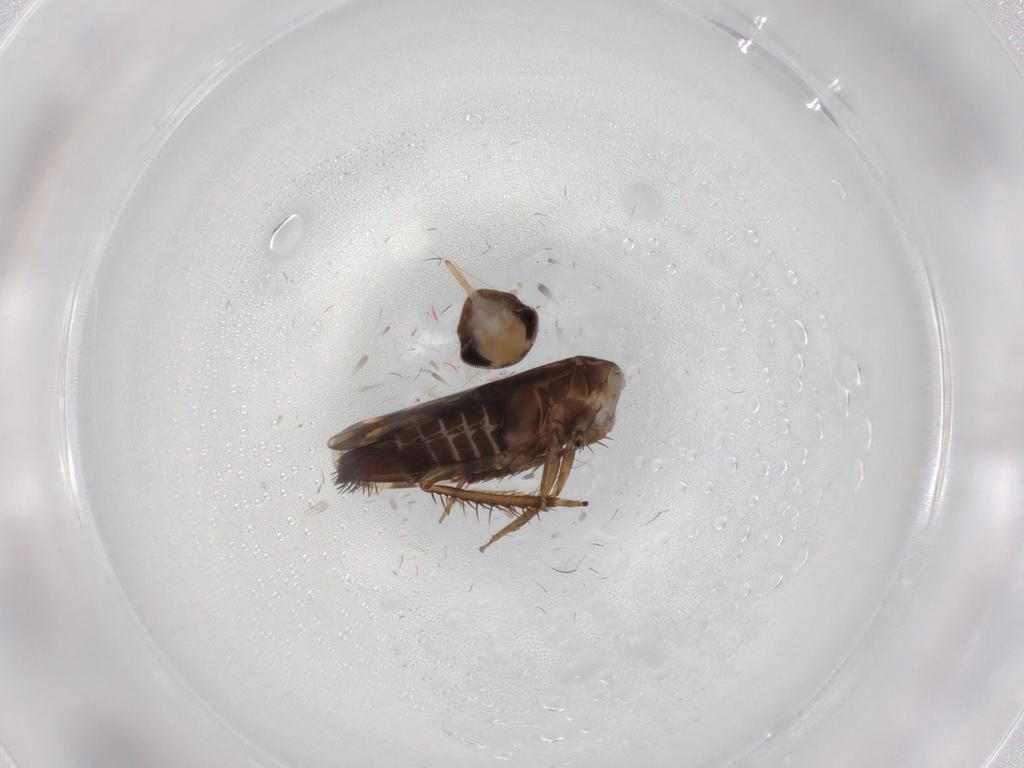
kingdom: Animalia
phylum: Arthropoda
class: Insecta
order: Hemiptera
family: Cicadellidae
